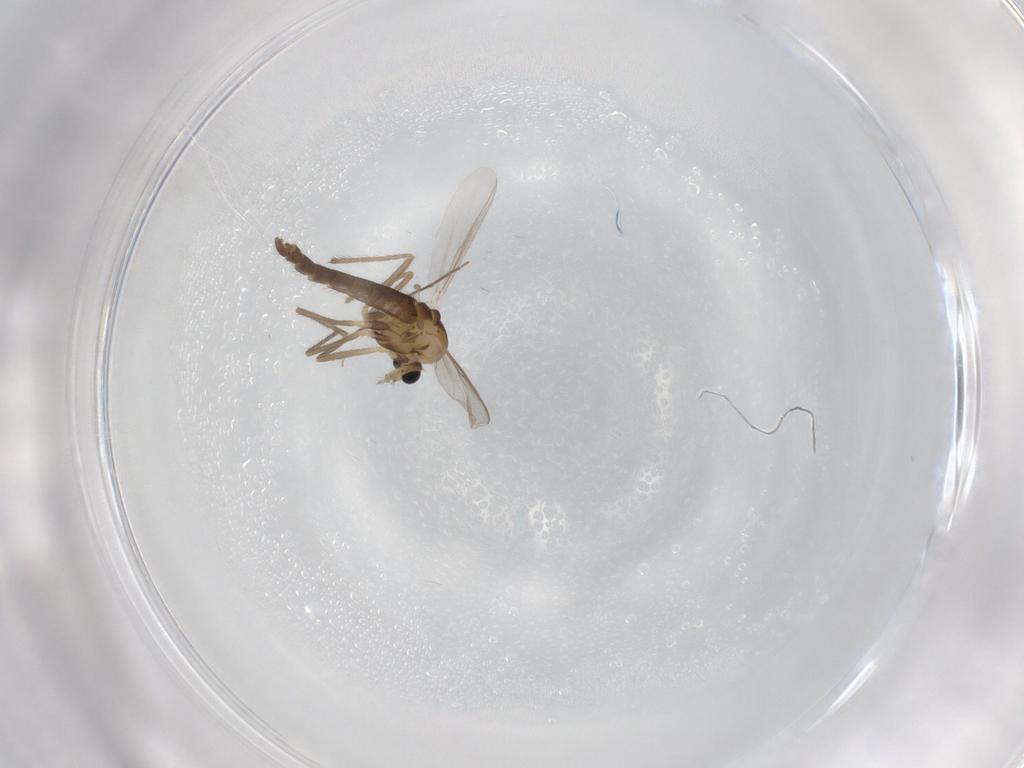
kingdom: Animalia
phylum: Arthropoda
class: Insecta
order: Diptera
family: Chironomidae
